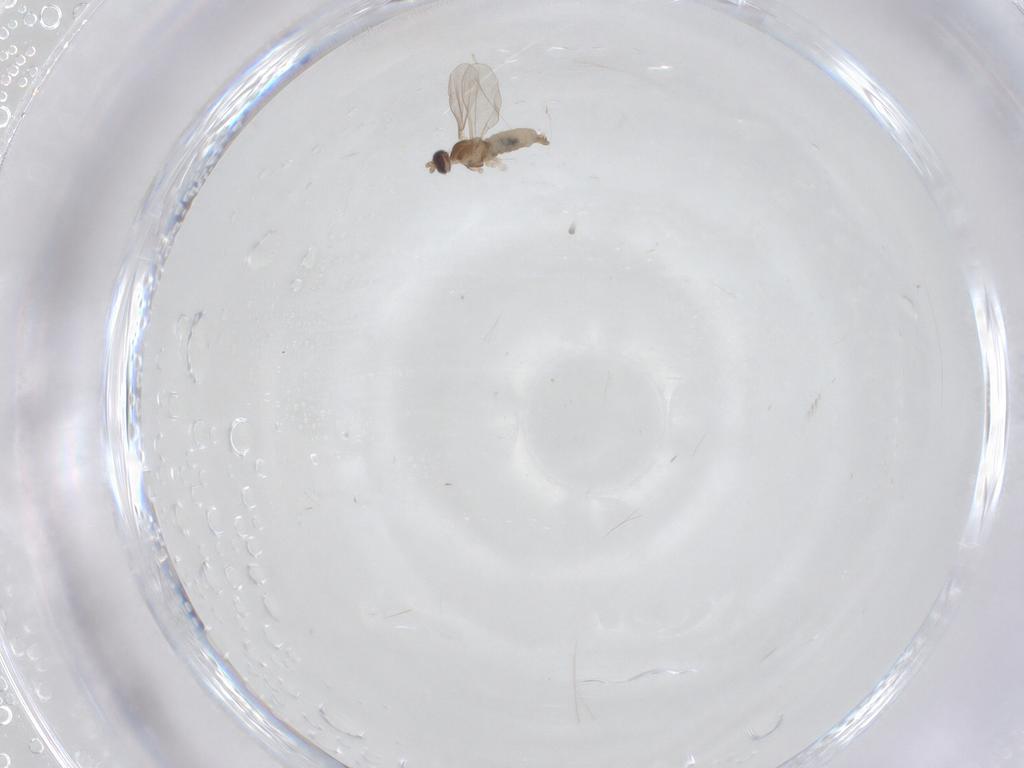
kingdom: Animalia
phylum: Arthropoda
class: Insecta
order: Diptera
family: Cecidomyiidae
